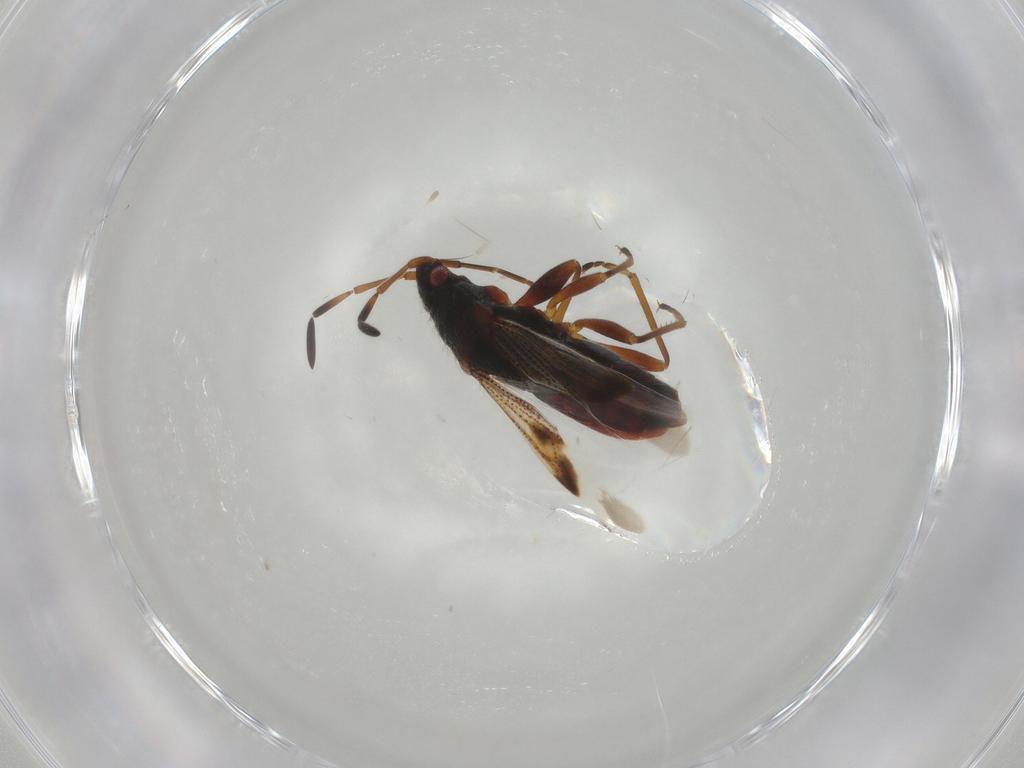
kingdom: Animalia
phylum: Arthropoda
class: Insecta
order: Hemiptera
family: Rhyparochromidae
